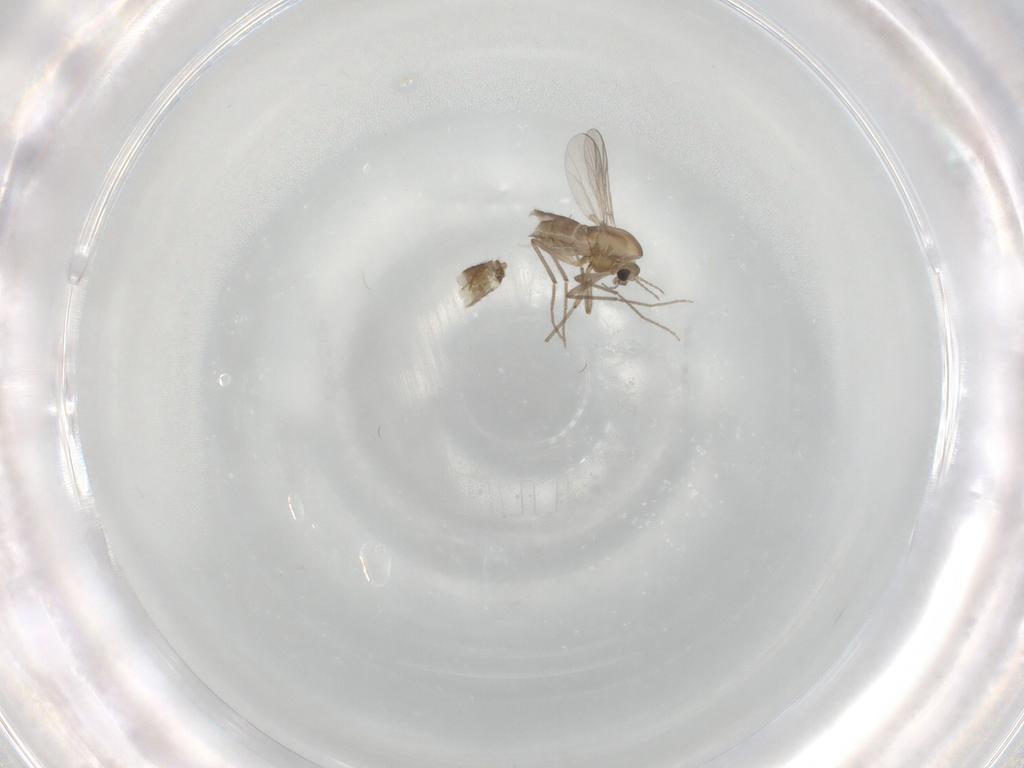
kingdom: Animalia
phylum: Arthropoda
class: Insecta
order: Diptera
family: Chironomidae
